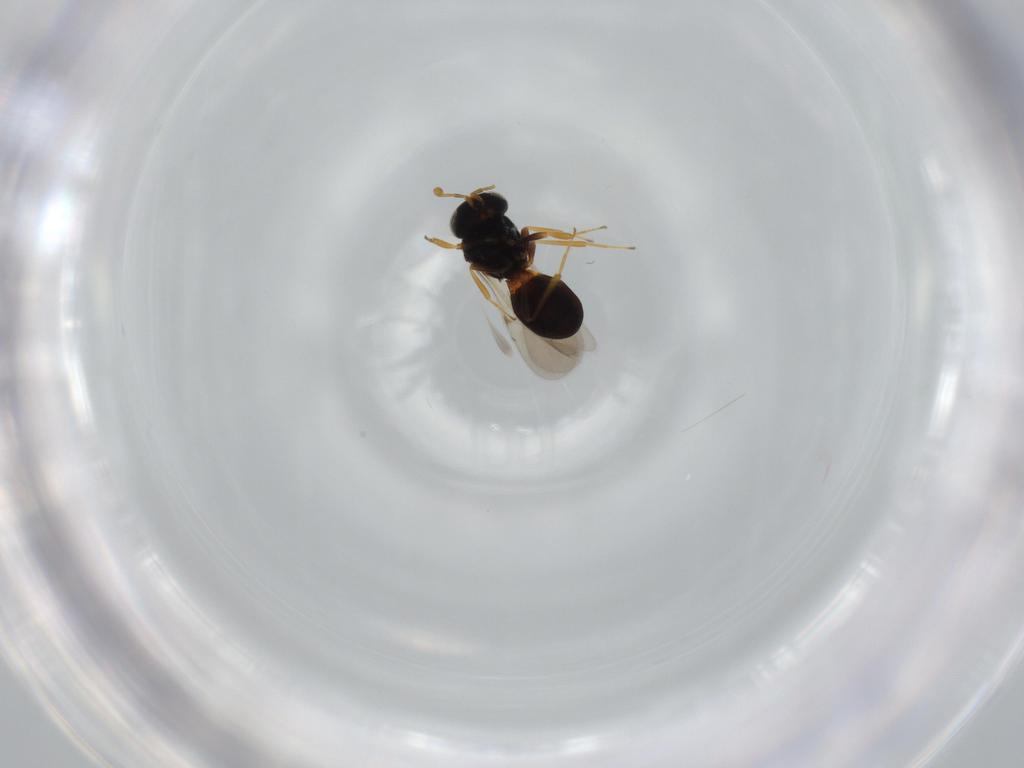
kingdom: Animalia
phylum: Arthropoda
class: Insecta
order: Hymenoptera
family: Scelionidae
